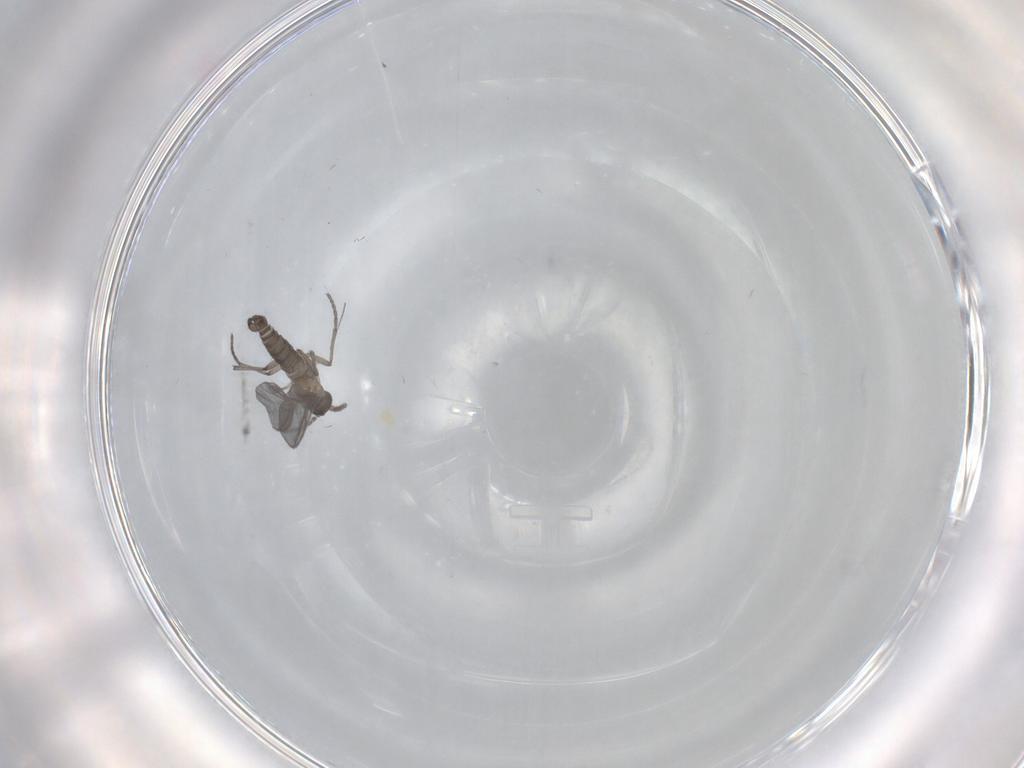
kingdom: Animalia
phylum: Arthropoda
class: Insecta
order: Diptera
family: Sciaridae
